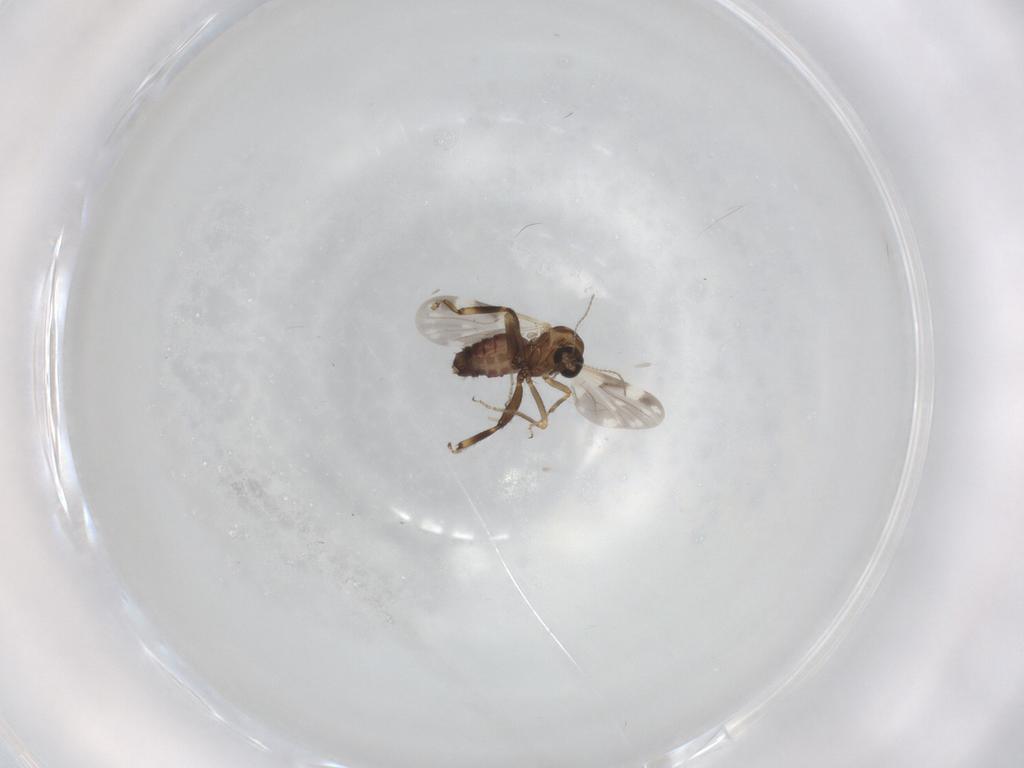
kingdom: Animalia
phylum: Arthropoda
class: Insecta
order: Diptera
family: Ceratopogonidae
